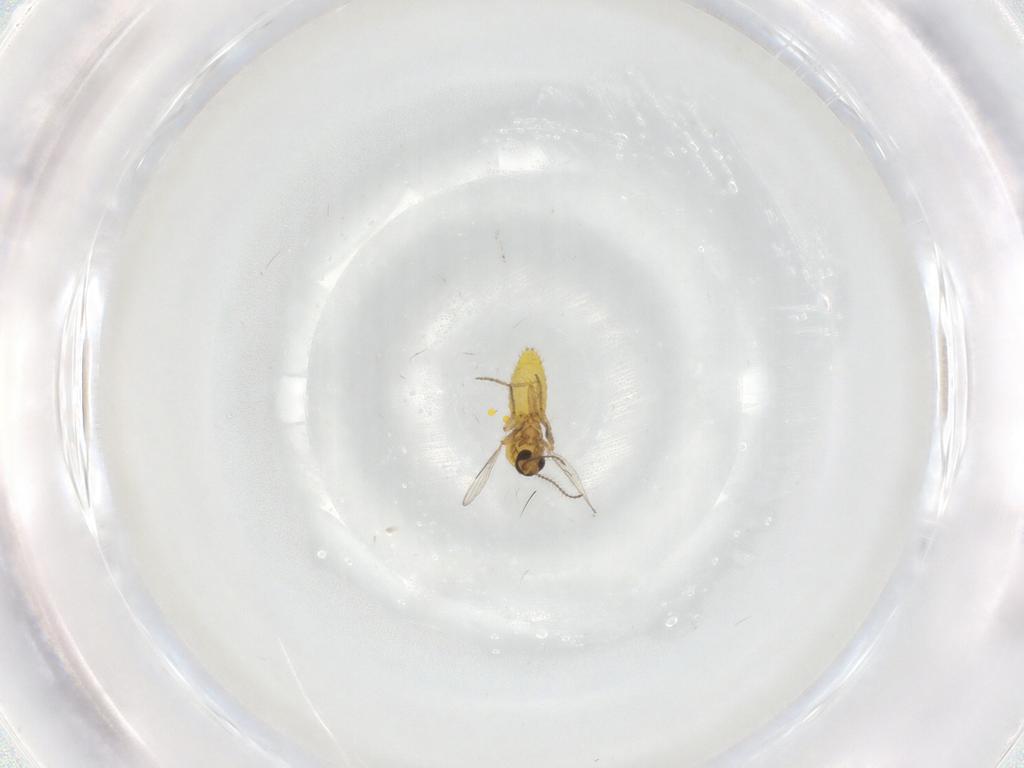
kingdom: Animalia
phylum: Arthropoda
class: Insecta
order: Diptera
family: Ceratopogonidae
